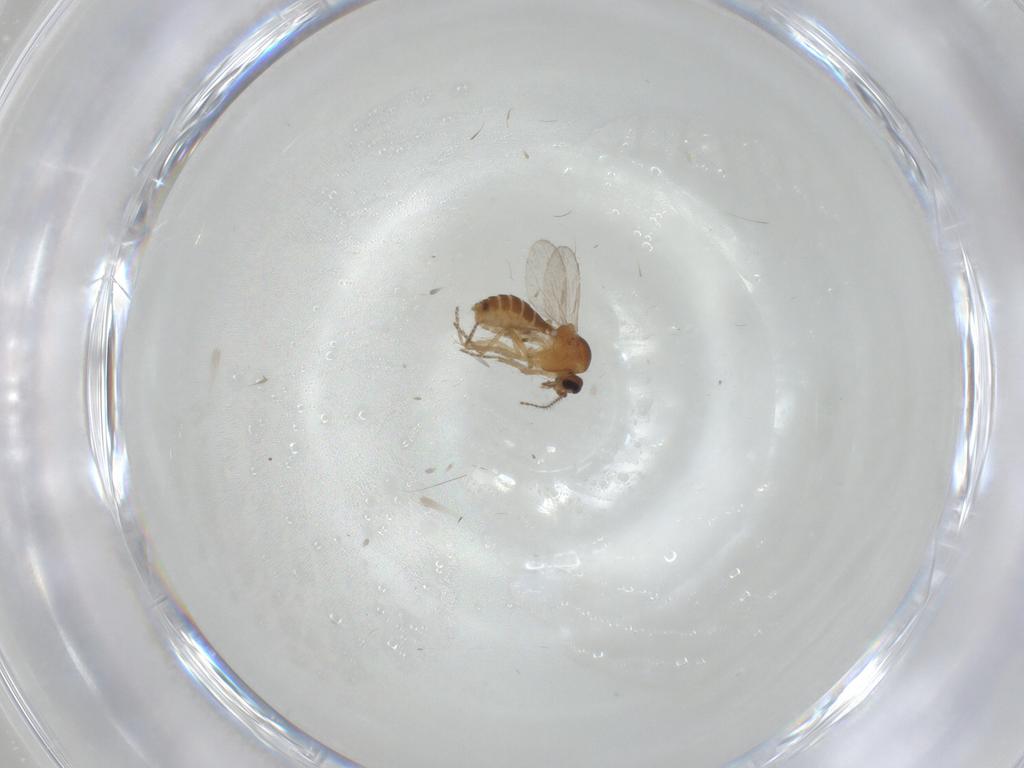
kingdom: Animalia
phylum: Arthropoda
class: Insecta
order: Diptera
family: Ceratopogonidae
